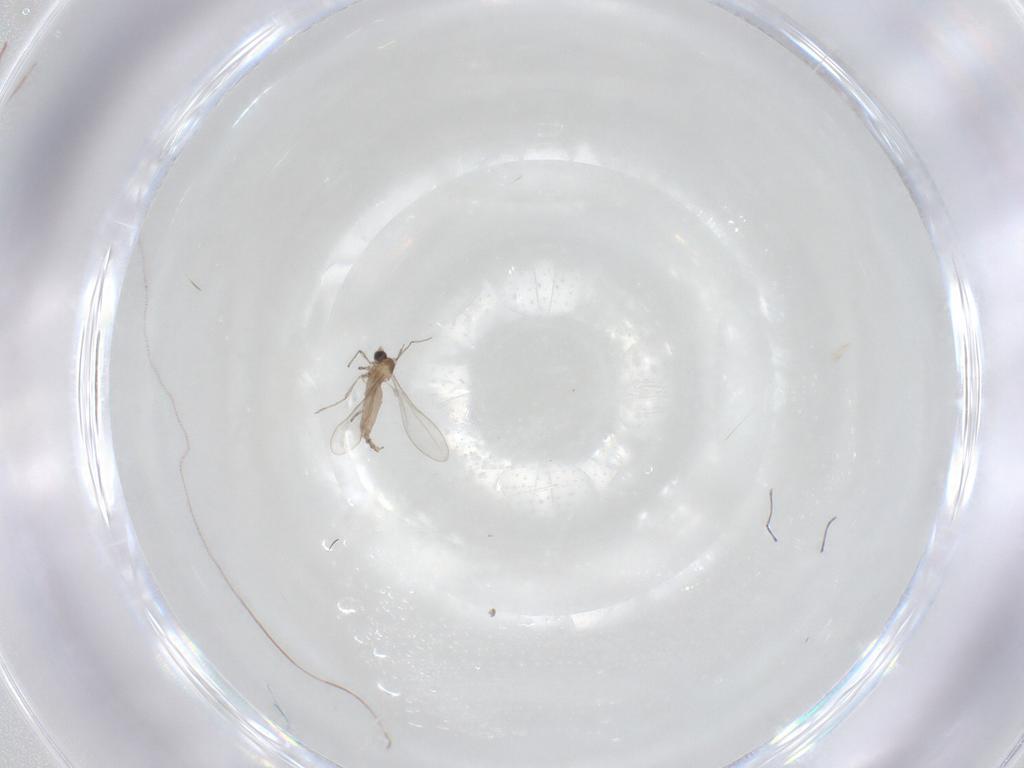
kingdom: Animalia
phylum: Arthropoda
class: Insecta
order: Diptera
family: Cecidomyiidae
